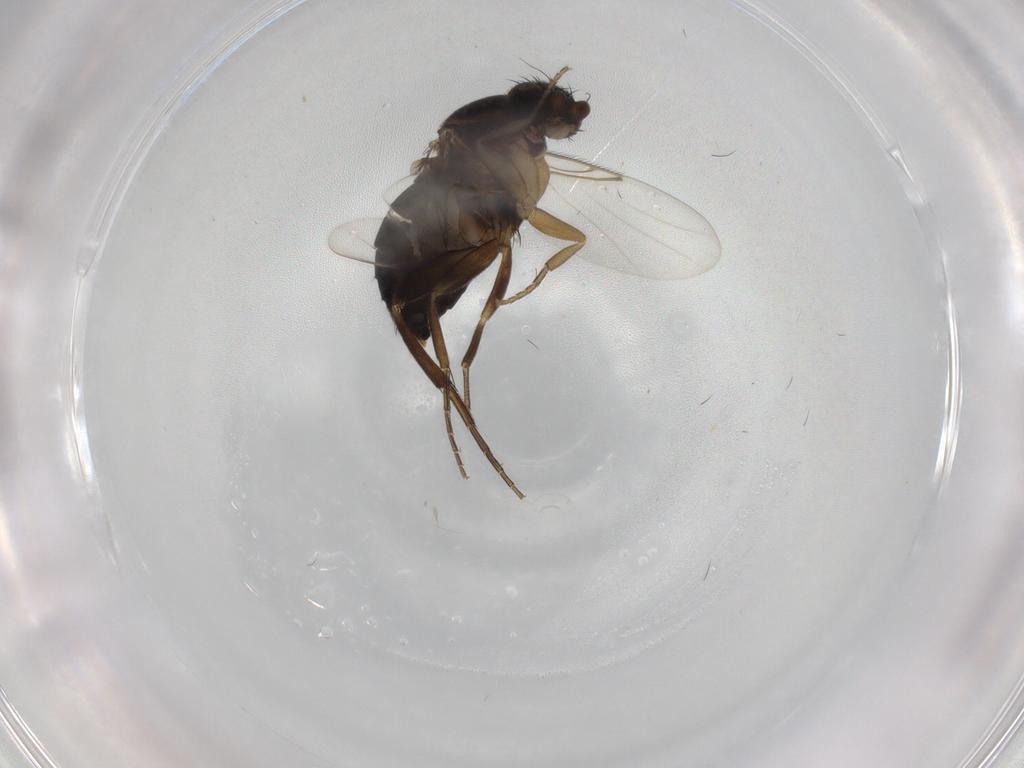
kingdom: Animalia
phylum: Arthropoda
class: Insecta
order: Diptera
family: Phoridae
